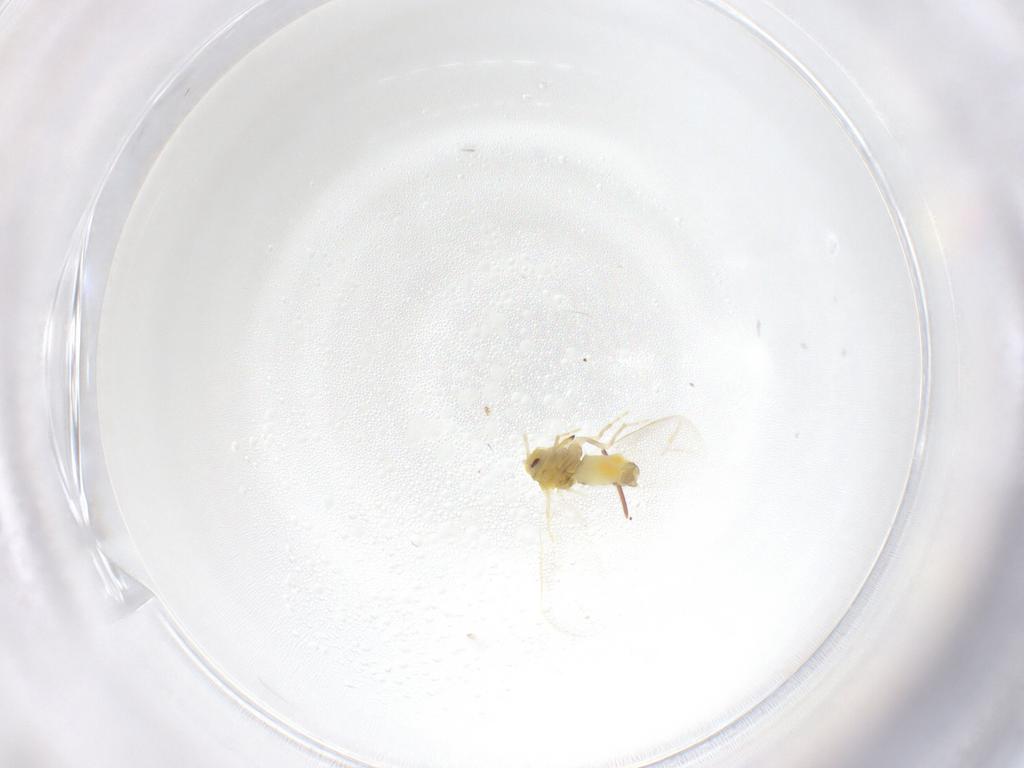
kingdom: Animalia
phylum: Arthropoda
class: Insecta
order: Hemiptera
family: Aleyrodidae
